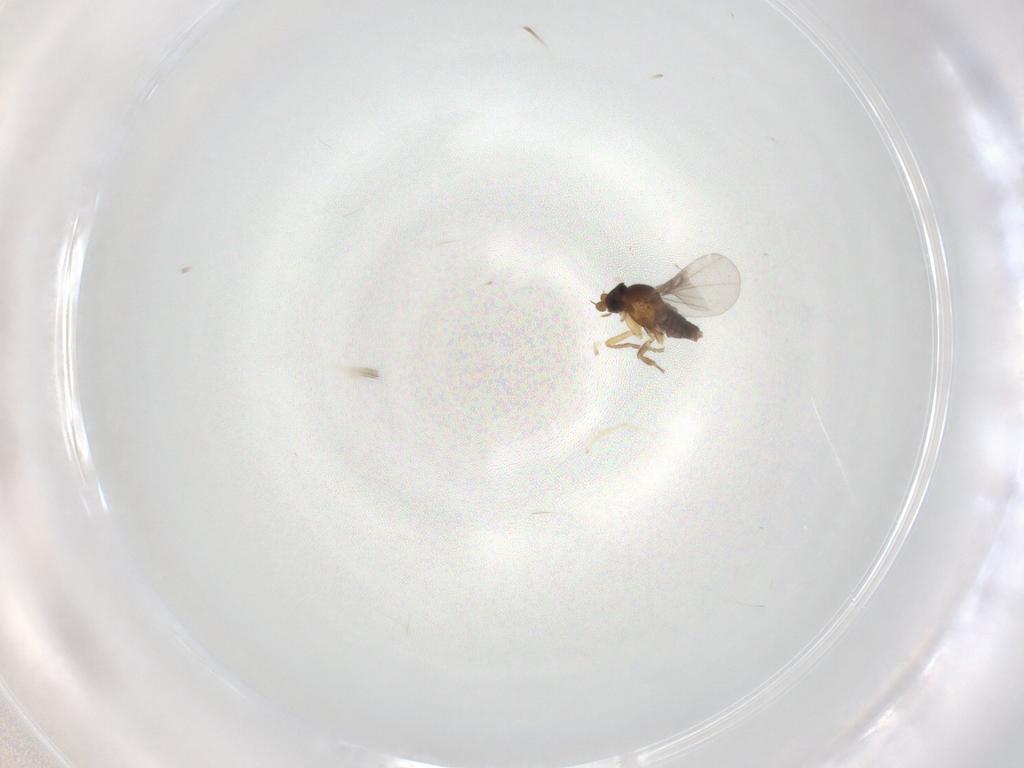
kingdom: Animalia
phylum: Arthropoda
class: Insecta
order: Diptera
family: Phoridae
